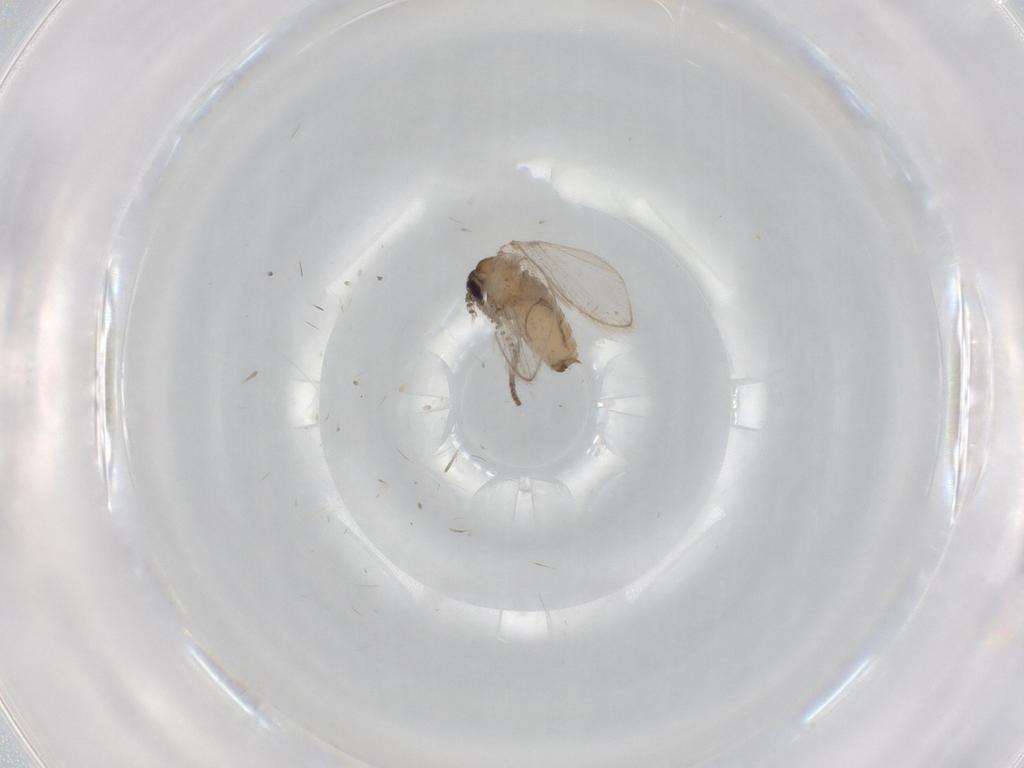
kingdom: Animalia
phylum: Arthropoda
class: Insecta
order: Diptera
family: Psychodidae
